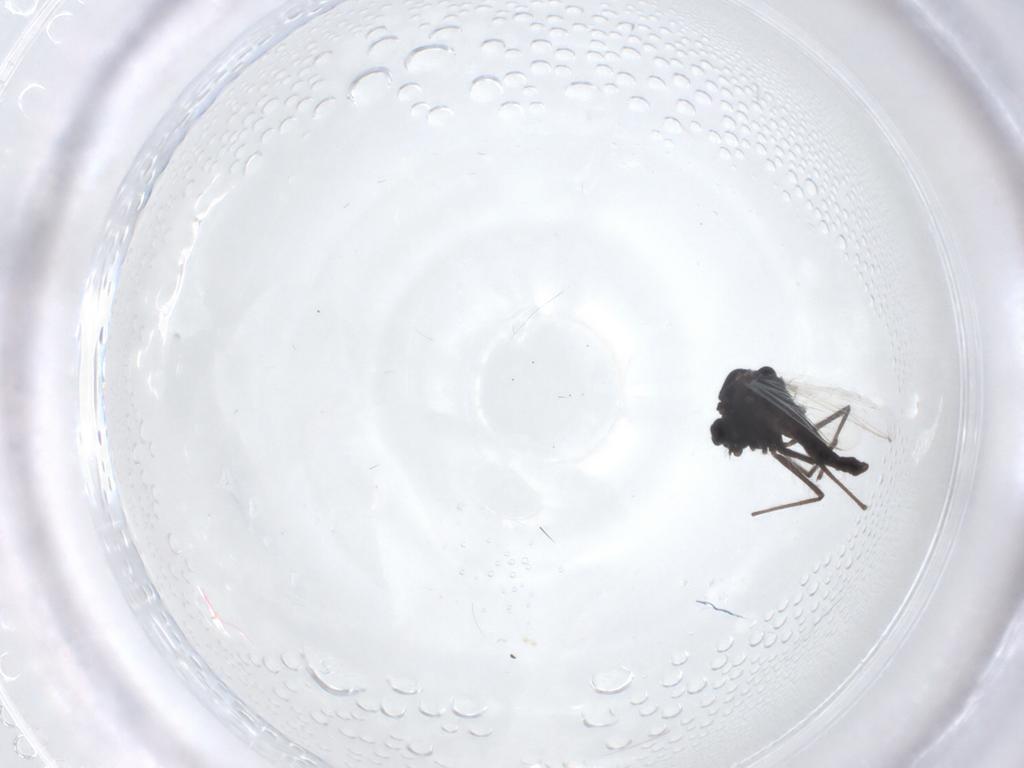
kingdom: Animalia
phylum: Arthropoda
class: Insecta
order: Diptera
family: Chironomidae
